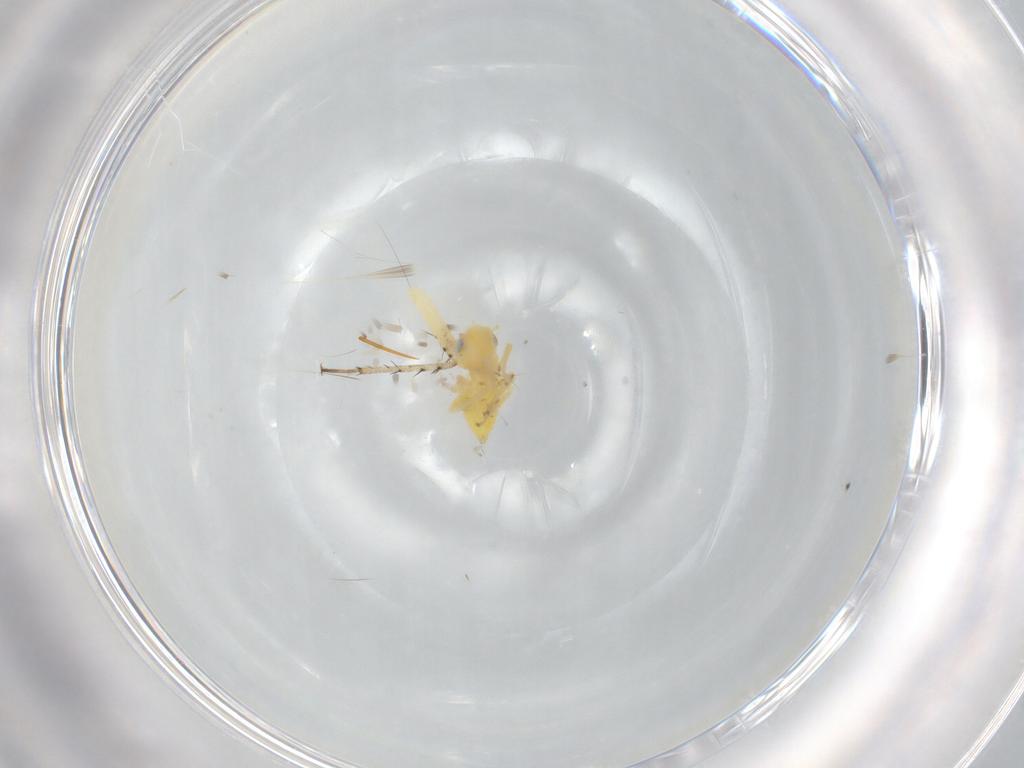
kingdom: Animalia
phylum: Arthropoda
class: Insecta
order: Hemiptera
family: Miridae
